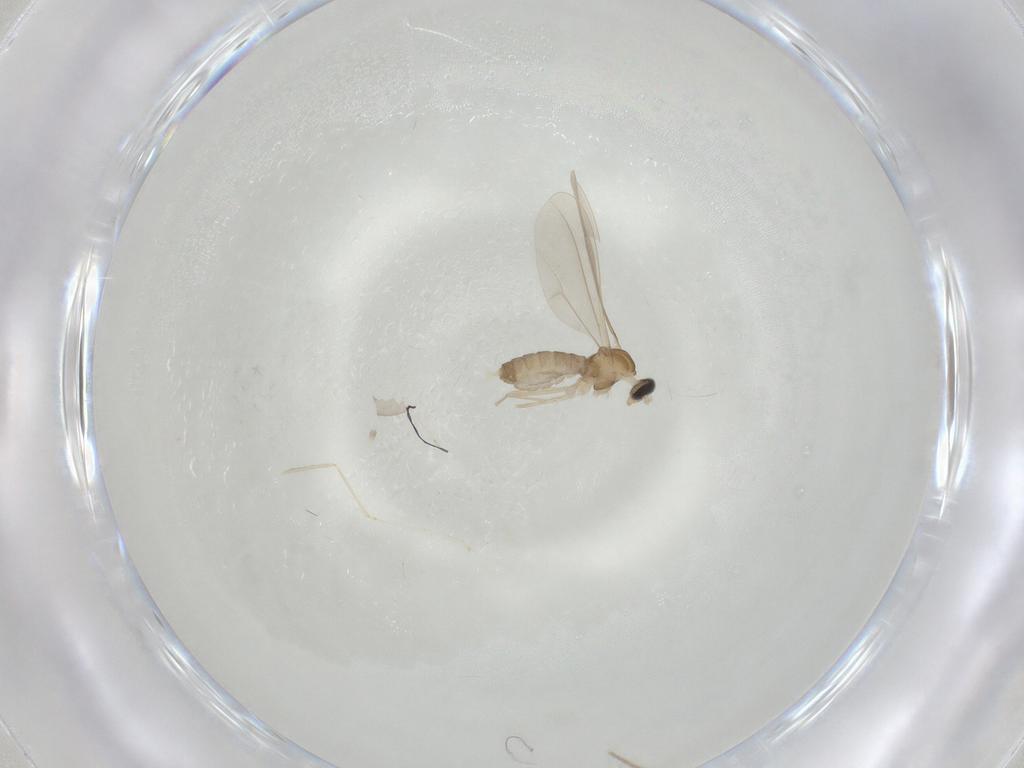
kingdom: Animalia
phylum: Arthropoda
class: Insecta
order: Diptera
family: Cecidomyiidae
